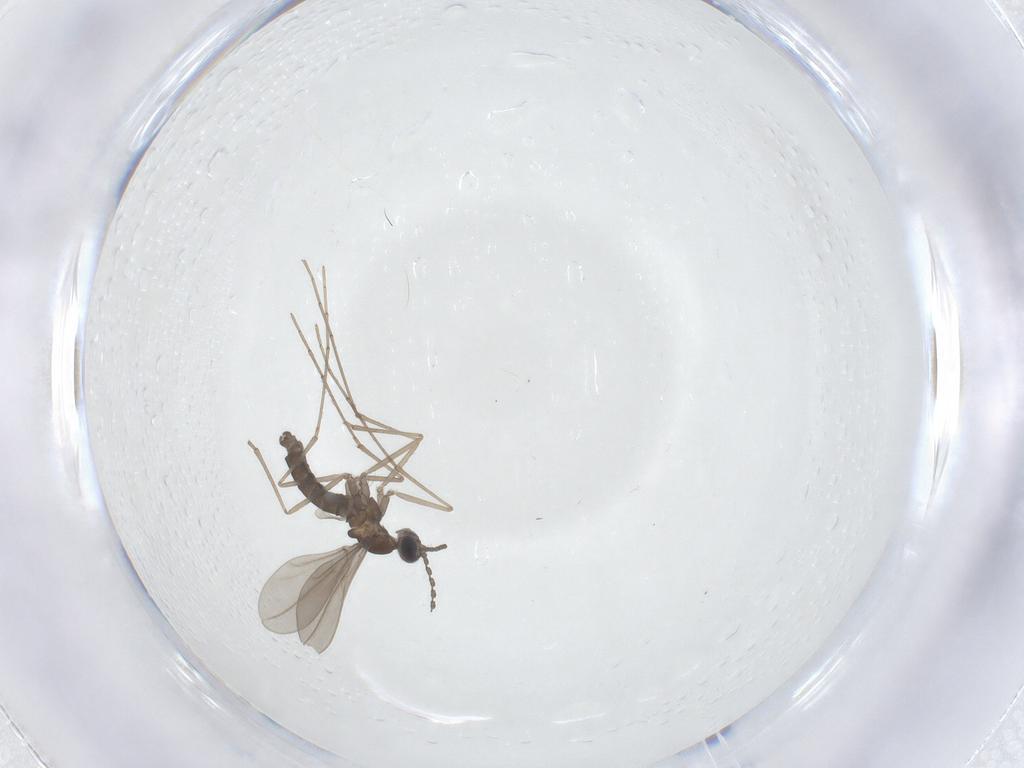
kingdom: Animalia
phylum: Arthropoda
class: Insecta
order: Diptera
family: Cecidomyiidae
